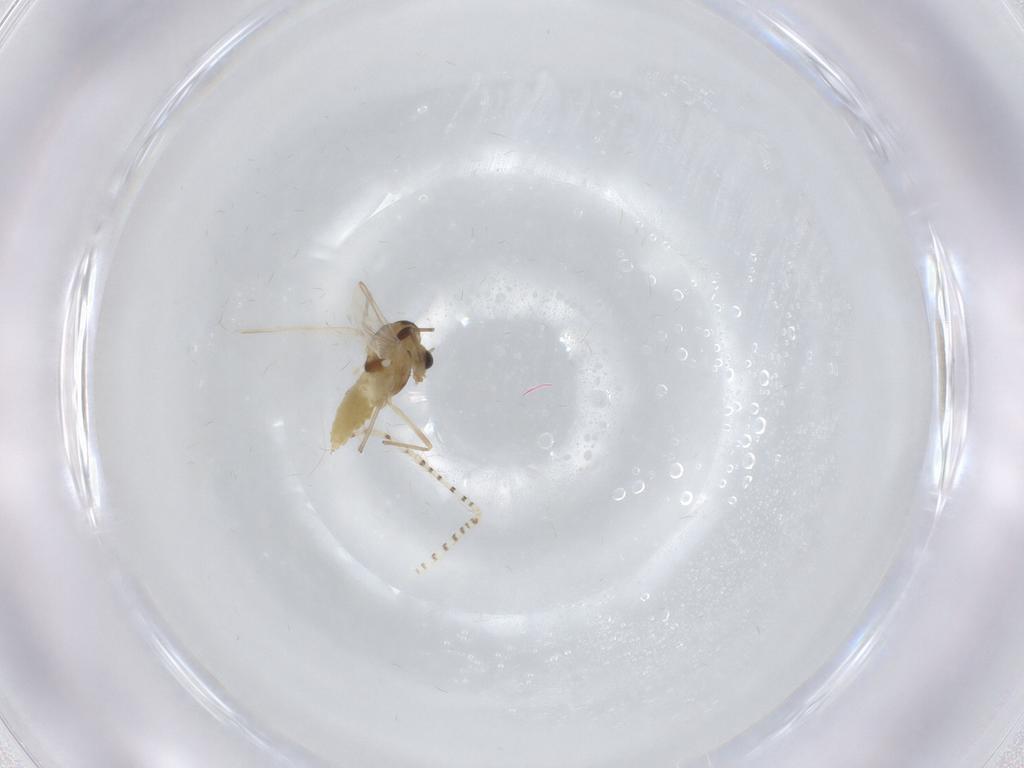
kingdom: Animalia
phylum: Arthropoda
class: Insecta
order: Diptera
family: Chaoboridae
